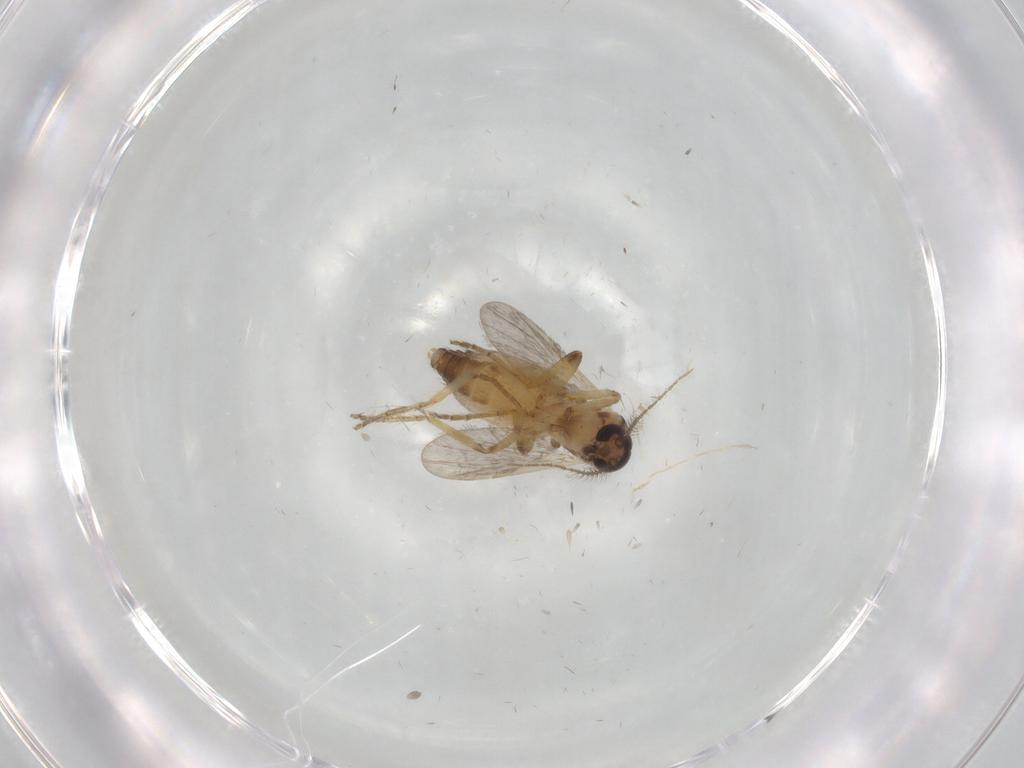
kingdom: Animalia
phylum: Arthropoda
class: Insecta
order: Diptera
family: Ceratopogonidae
